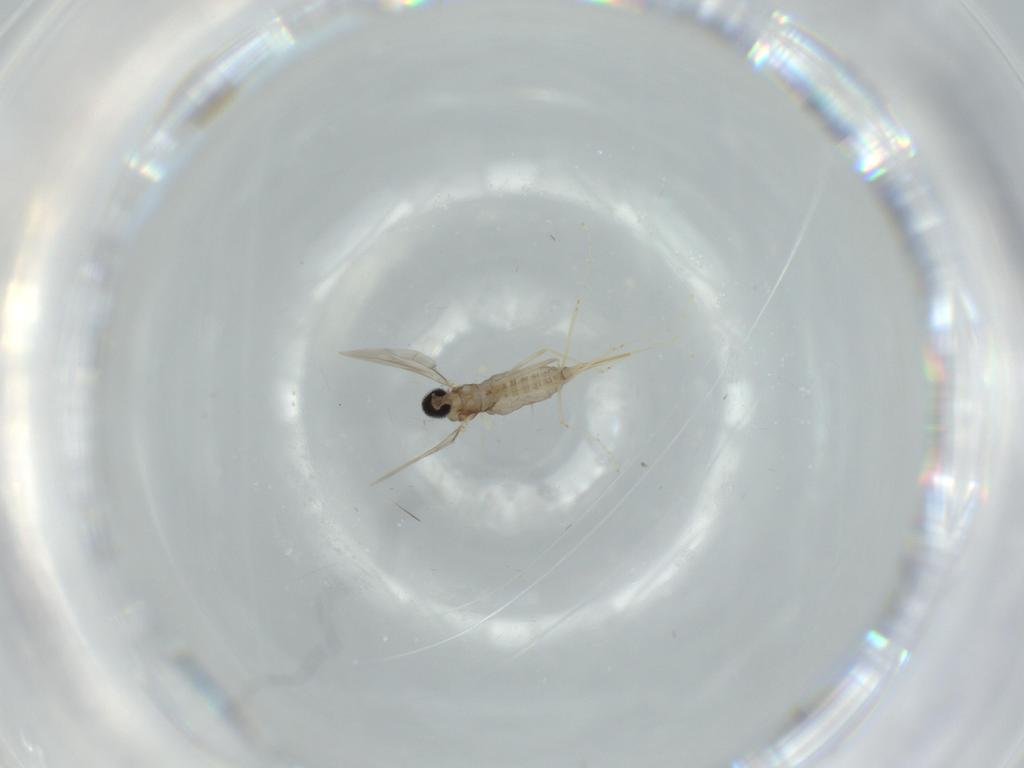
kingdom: Animalia
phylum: Arthropoda
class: Insecta
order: Diptera
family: Cecidomyiidae
